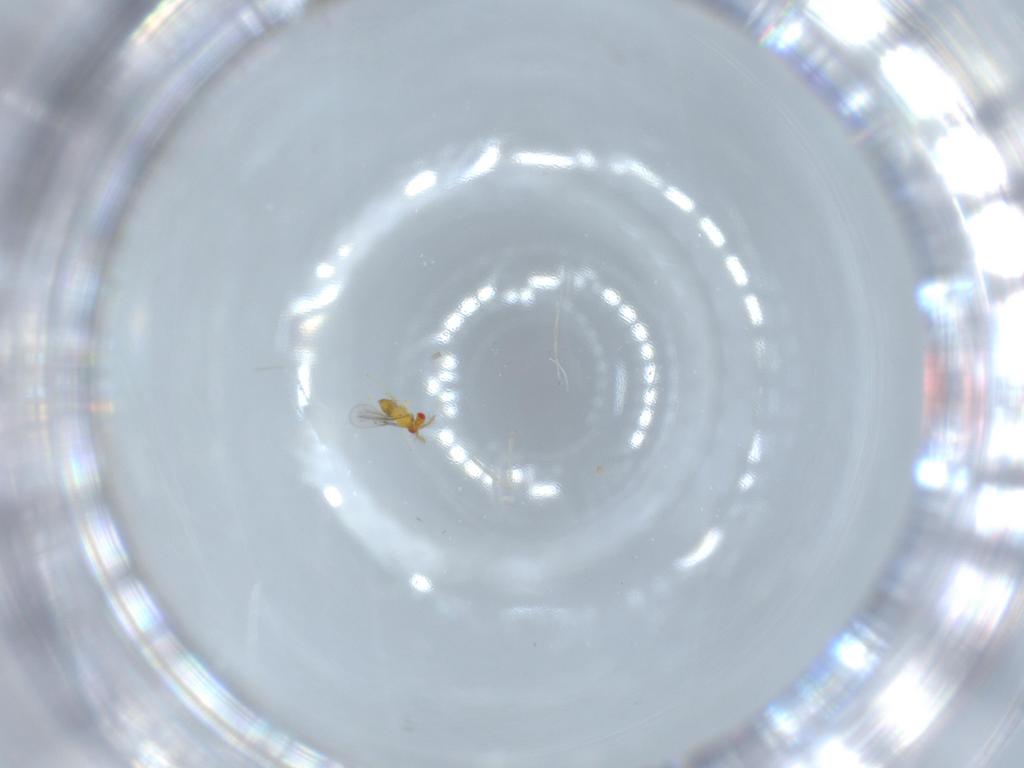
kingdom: Animalia
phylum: Arthropoda
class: Insecta
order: Hymenoptera
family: Trichogrammatidae
